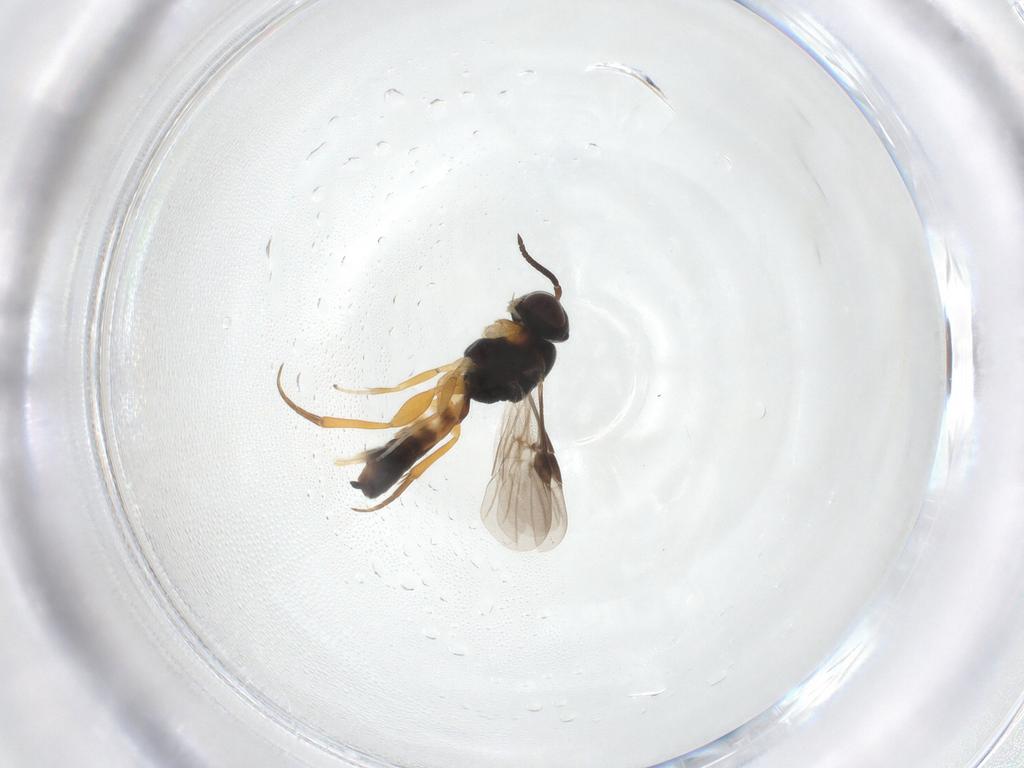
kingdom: Animalia
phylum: Arthropoda
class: Insecta
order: Hymenoptera
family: Braconidae
